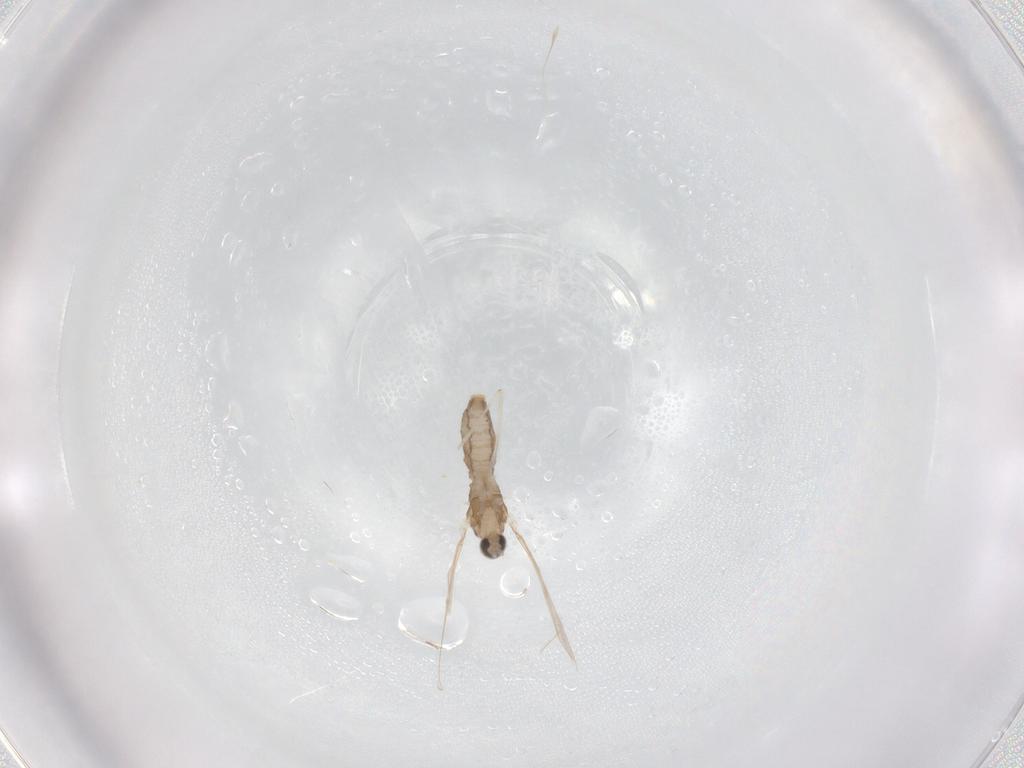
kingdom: Animalia
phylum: Arthropoda
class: Insecta
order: Diptera
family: Cecidomyiidae
